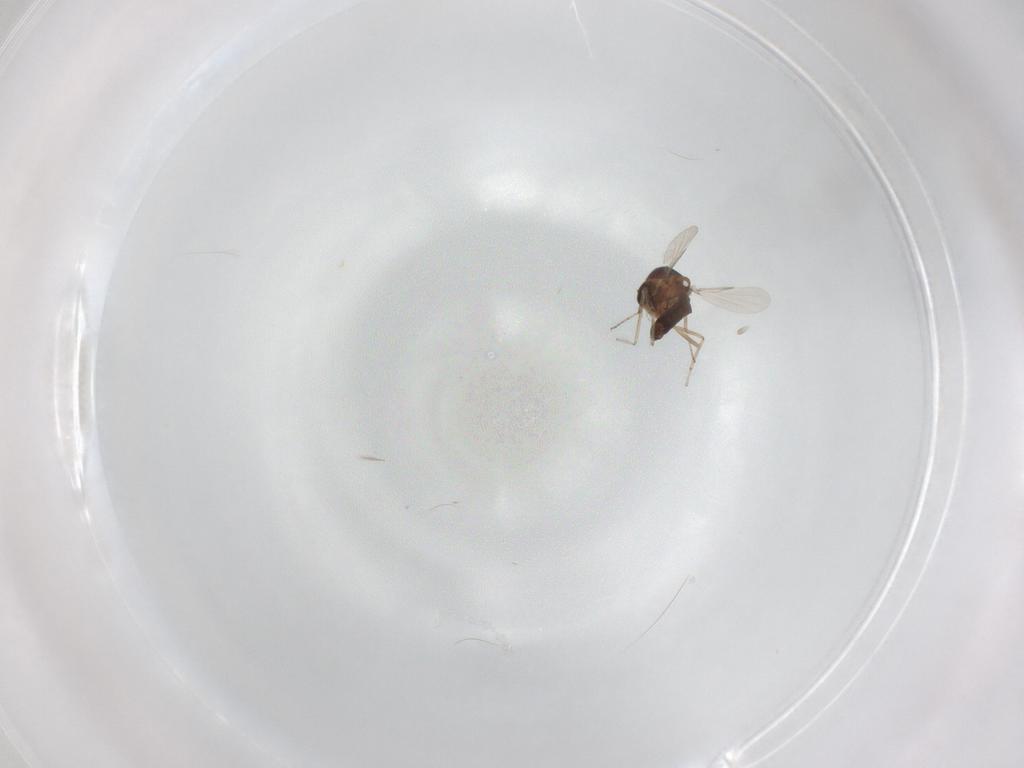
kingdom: Animalia
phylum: Arthropoda
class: Insecta
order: Diptera
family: Ceratopogonidae
